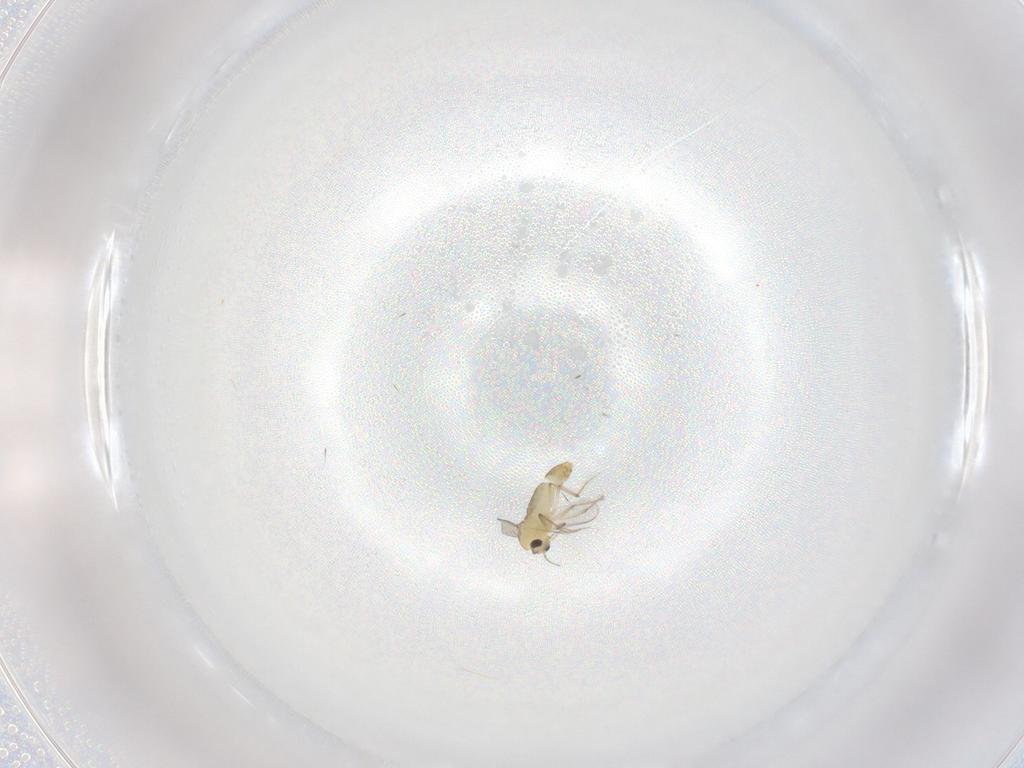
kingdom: Animalia
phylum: Arthropoda
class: Insecta
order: Diptera
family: Chironomidae
